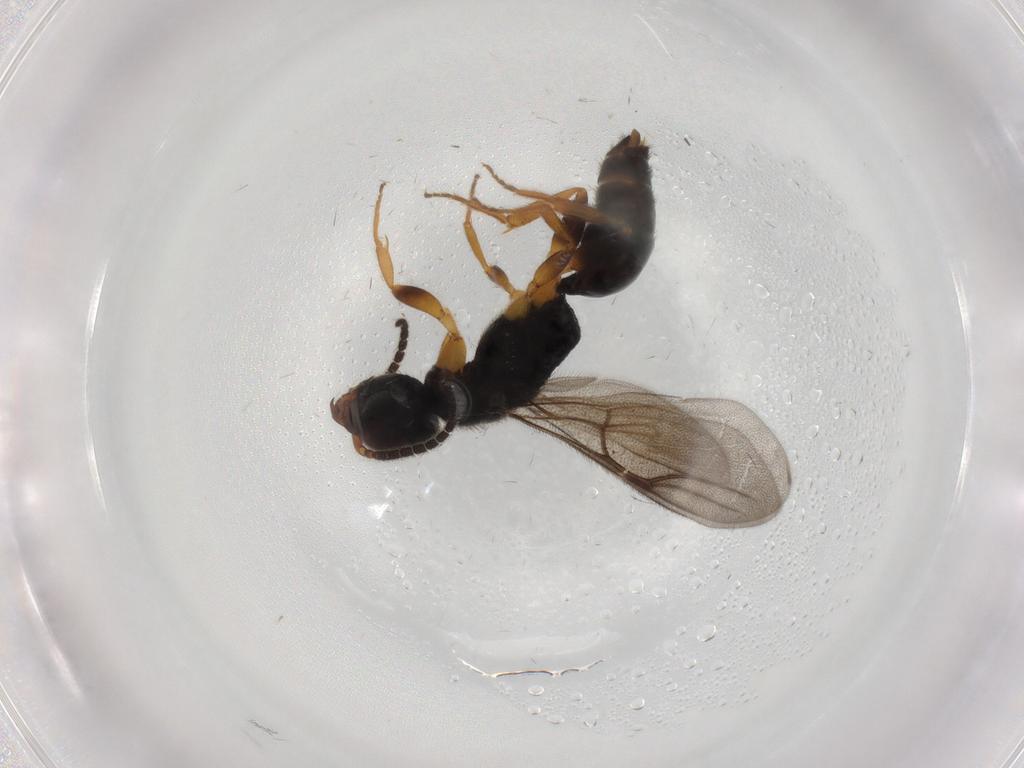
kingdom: Animalia
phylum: Arthropoda
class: Insecta
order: Hymenoptera
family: Bethylidae
